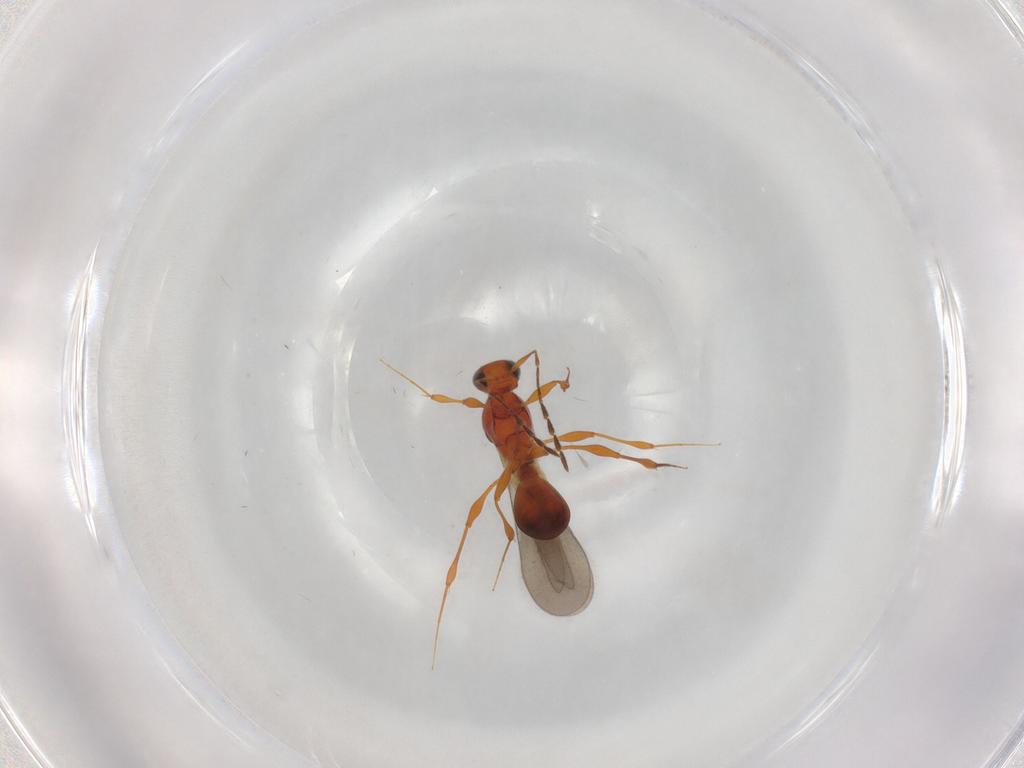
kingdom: Animalia
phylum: Arthropoda
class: Insecta
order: Hymenoptera
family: Platygastridae
